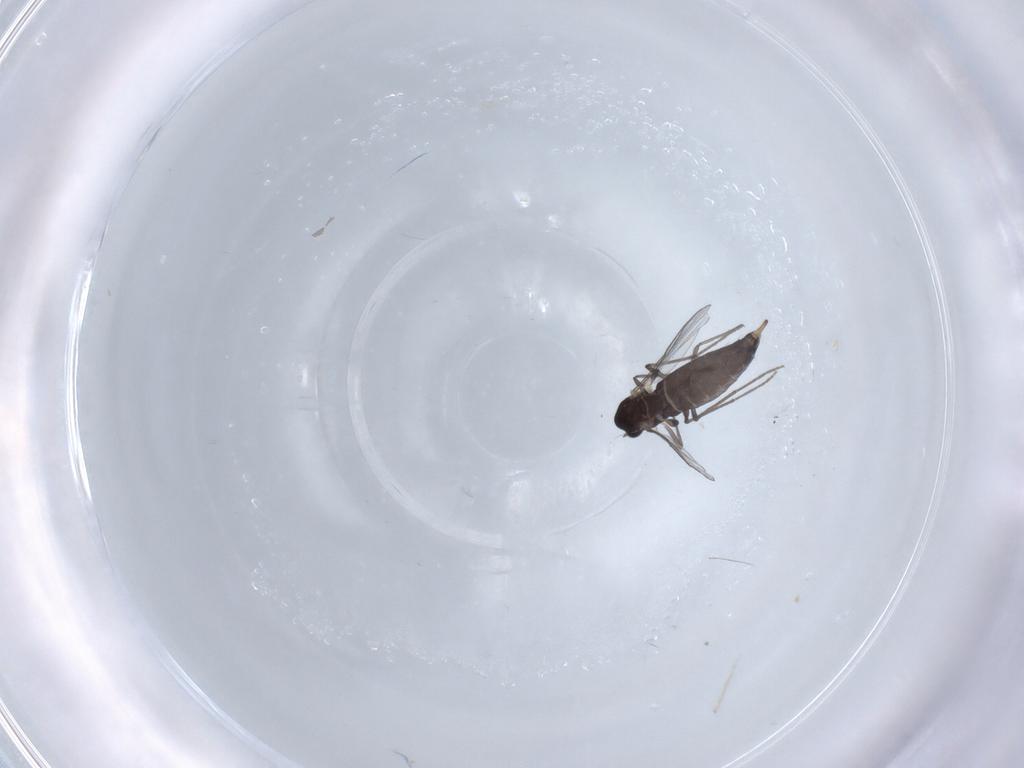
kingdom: Animalia
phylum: Arthropoda
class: Insecta
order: Diptera
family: Chironomidae
